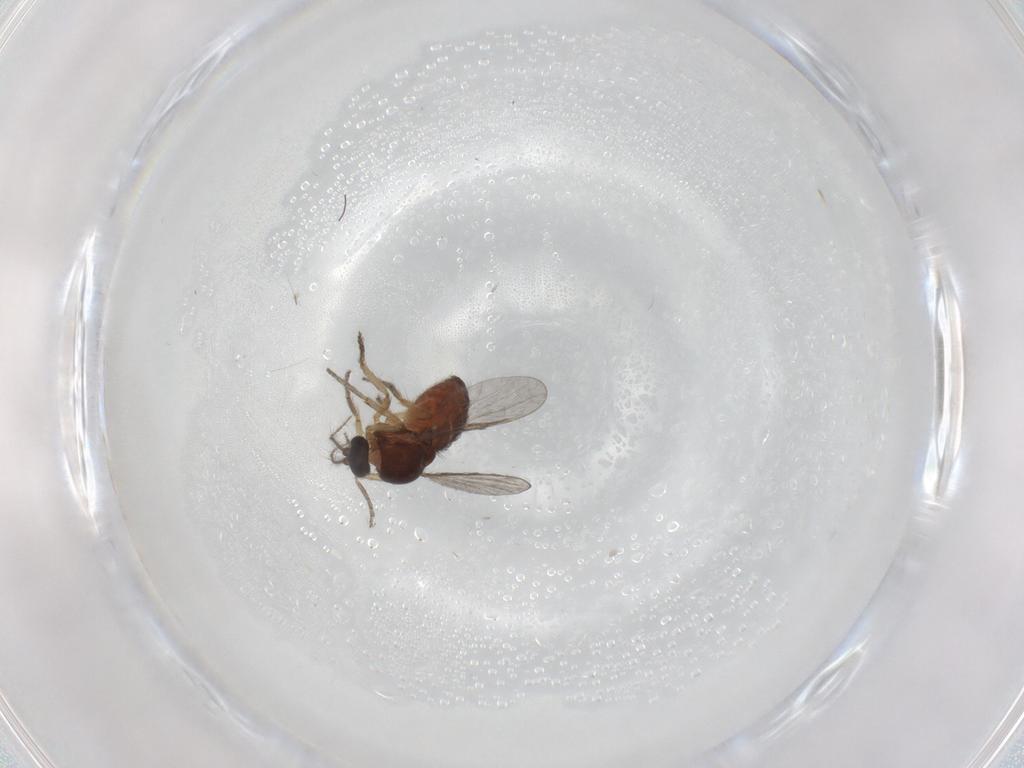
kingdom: Animalia
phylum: Arthropoda
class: Insecta
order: Diptera
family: Ceratopogonidae
